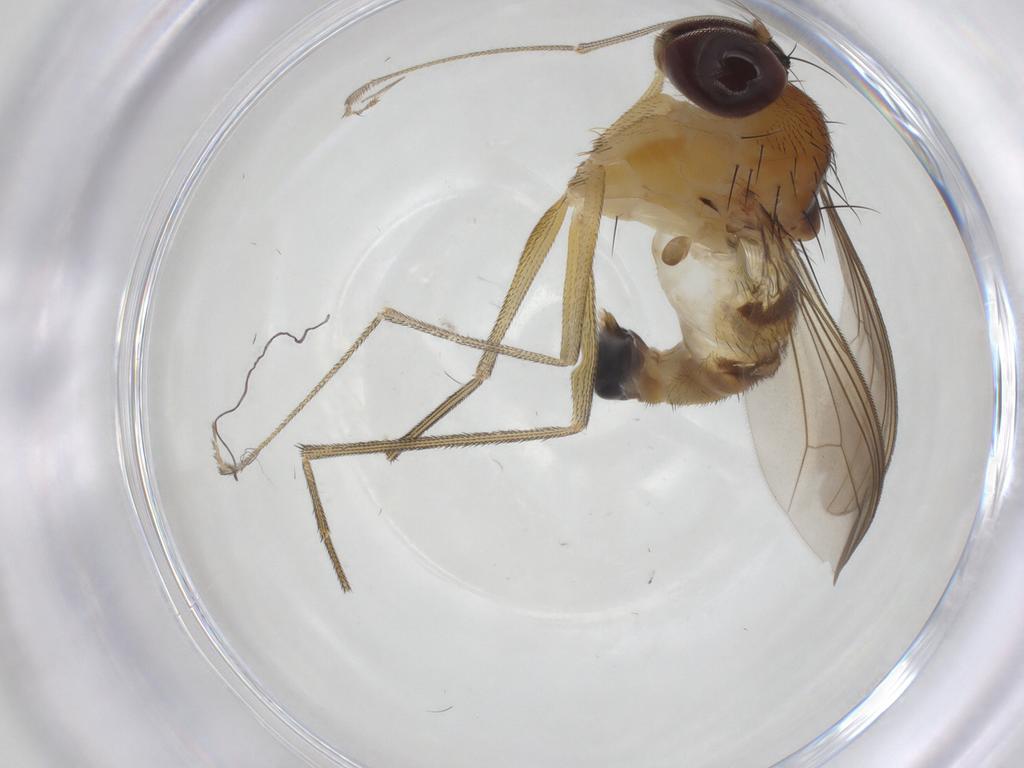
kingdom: Animalia
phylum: Arthropoda
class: Insecta
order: Diptera
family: Dolichopodidae
